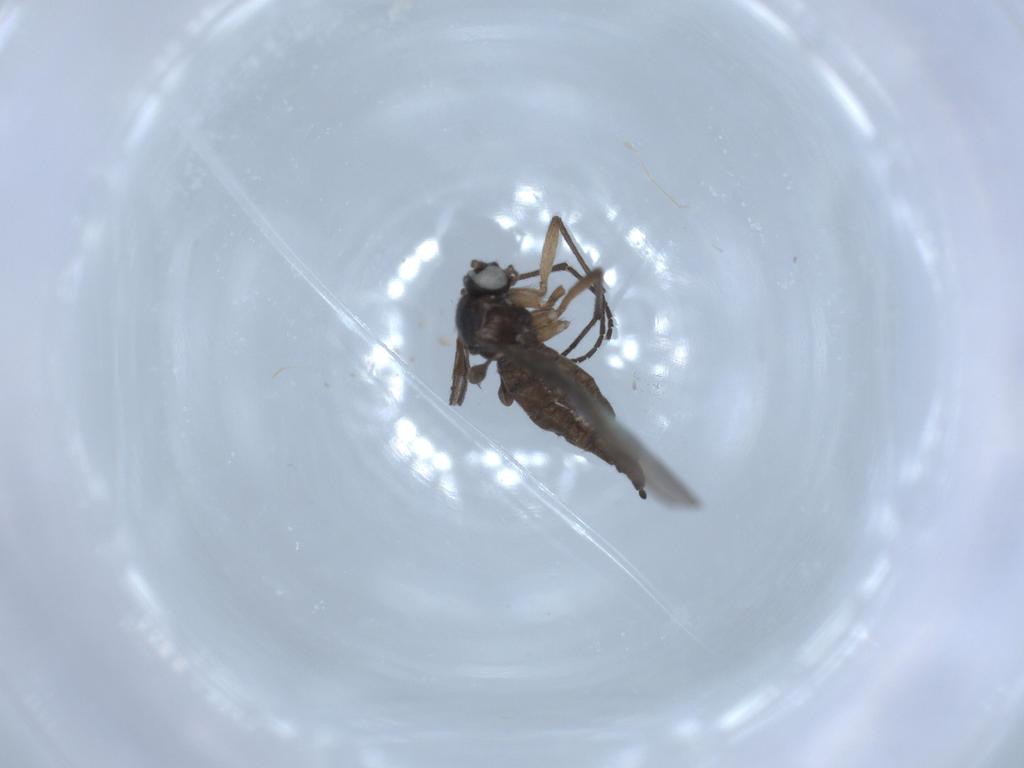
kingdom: Animalia
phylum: Arthropoda
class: Insecta
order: Diptera
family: Sciaridae
